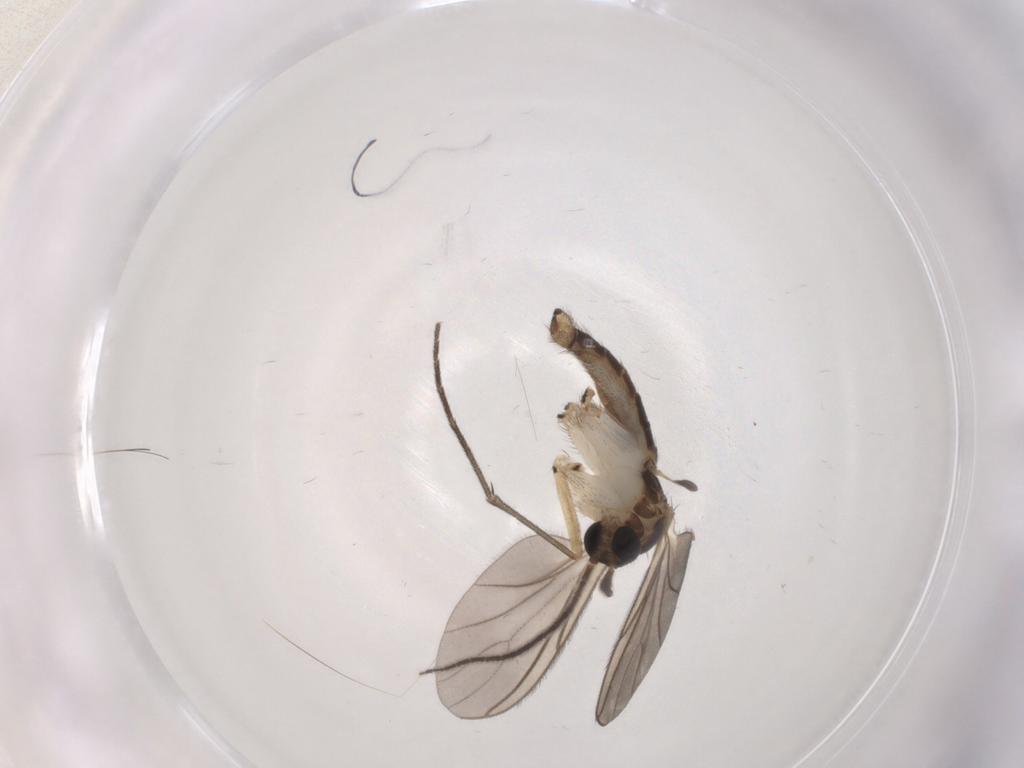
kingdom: Animalia
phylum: Arthropoda
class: Insecta
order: Diptera
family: Sciaridae
